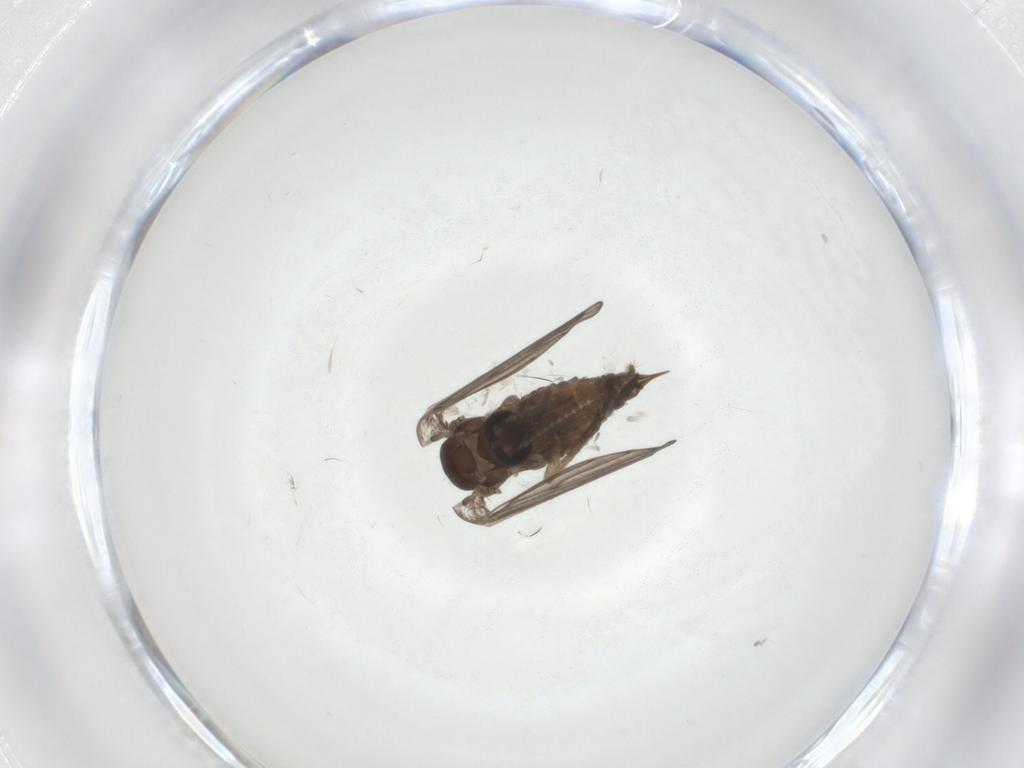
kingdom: Animalia
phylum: Arthropoda
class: Insecta
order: Diptera
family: Psychodidae
